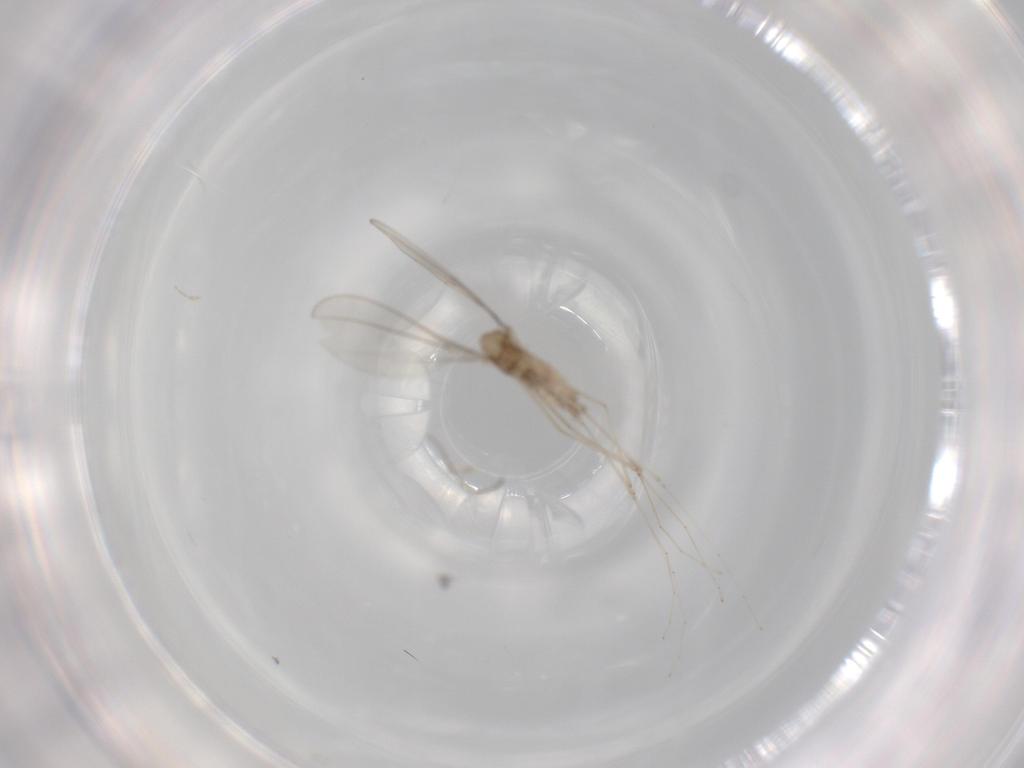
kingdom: Animalia
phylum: Arthropoda
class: Insecta
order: Diptera
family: Cecidomyiidae
